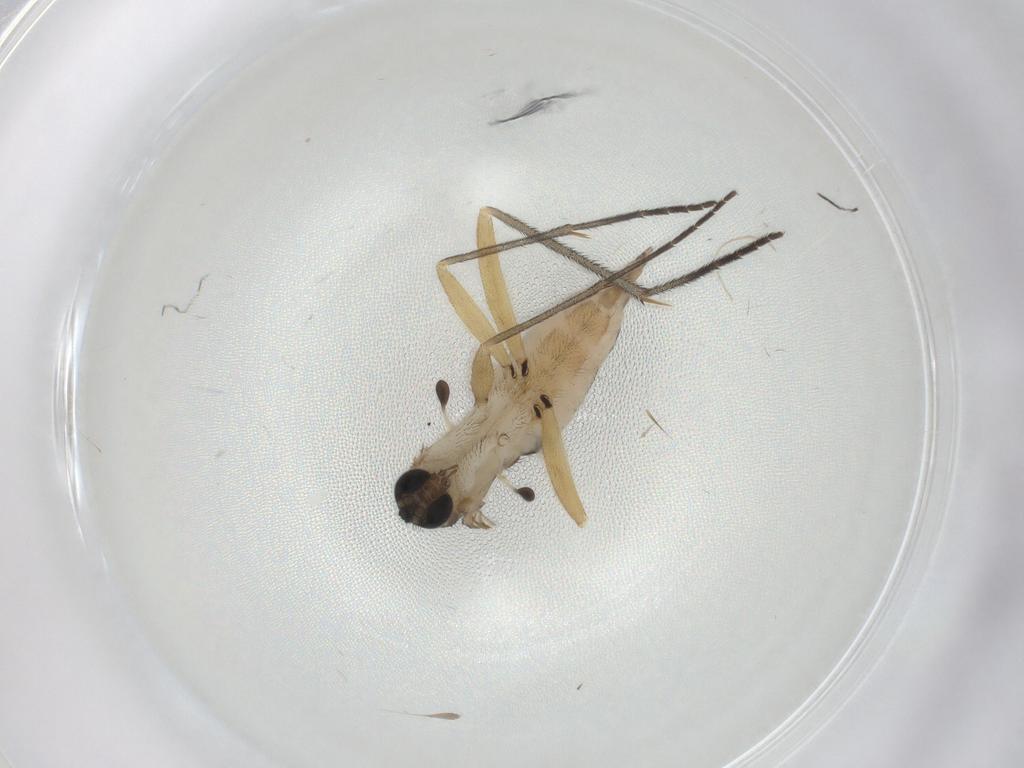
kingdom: Animalia
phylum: Arthropoda
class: Insecta
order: Diptera
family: Sciaridae
